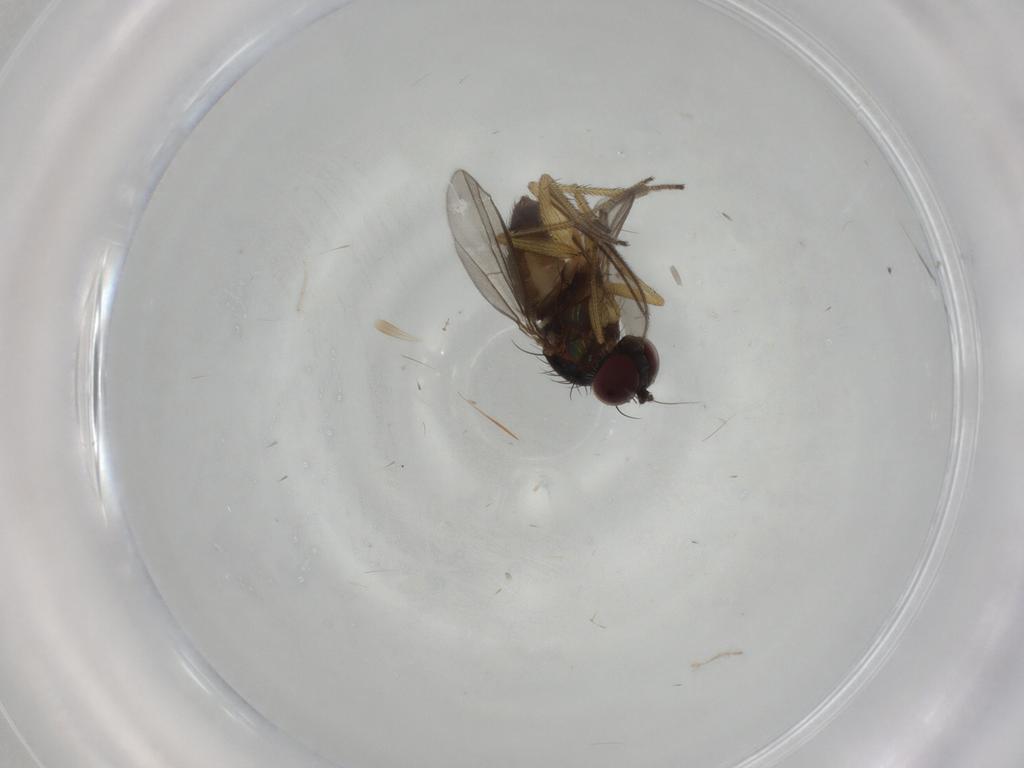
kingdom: Animalia
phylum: Arthropoda
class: Insecta
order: Diptera
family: Dolichopodidae
